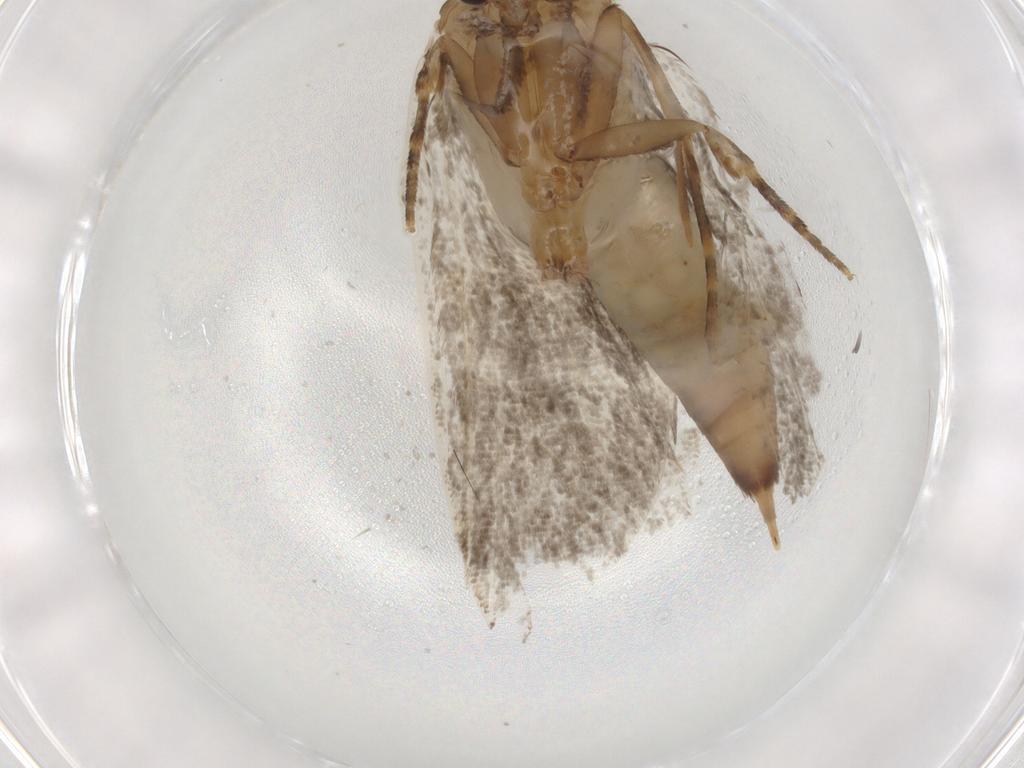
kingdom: Animalia
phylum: Arthropoda
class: Insecta
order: Lepidoptera
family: Tineidae
